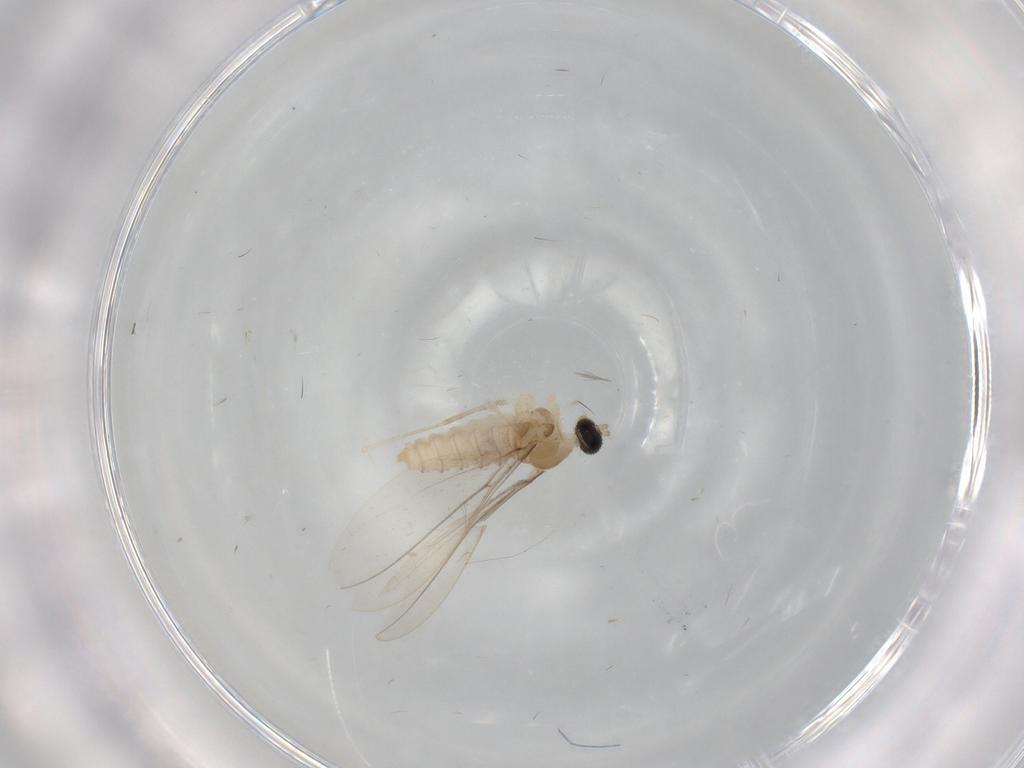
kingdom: Animalia
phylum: Arthropoda
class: Insecta
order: Diptera
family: Cecidomyiidae
